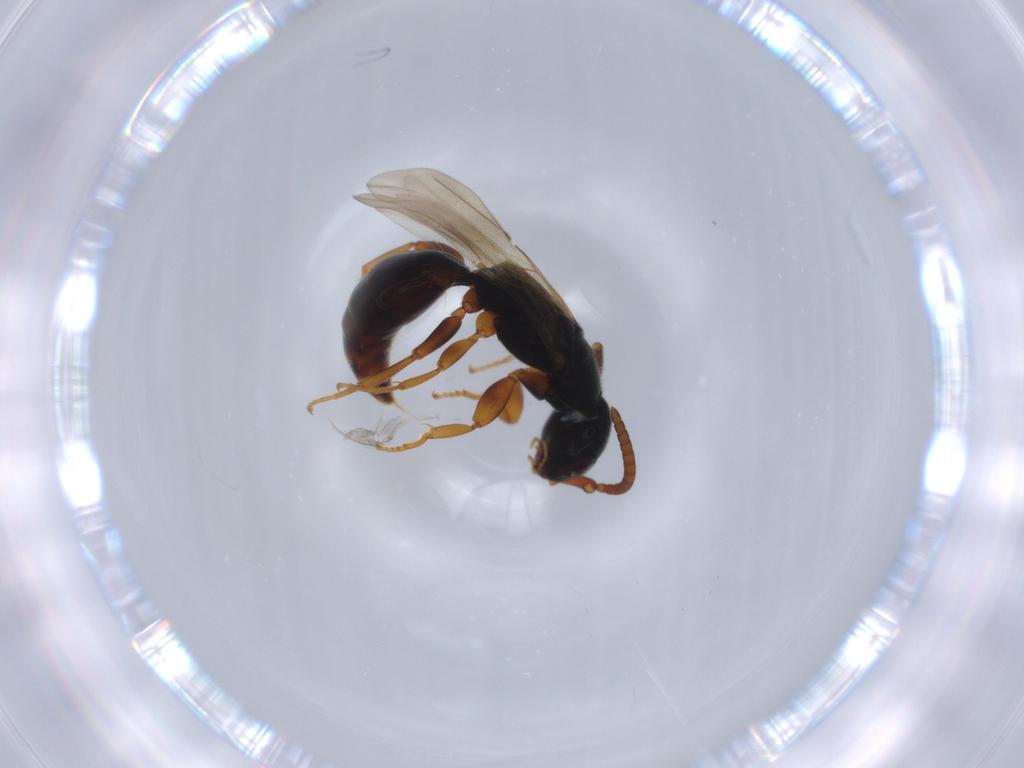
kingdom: Animalia
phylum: Arthropoda
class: Insecta
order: Hymenoptera
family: Bethylidae
